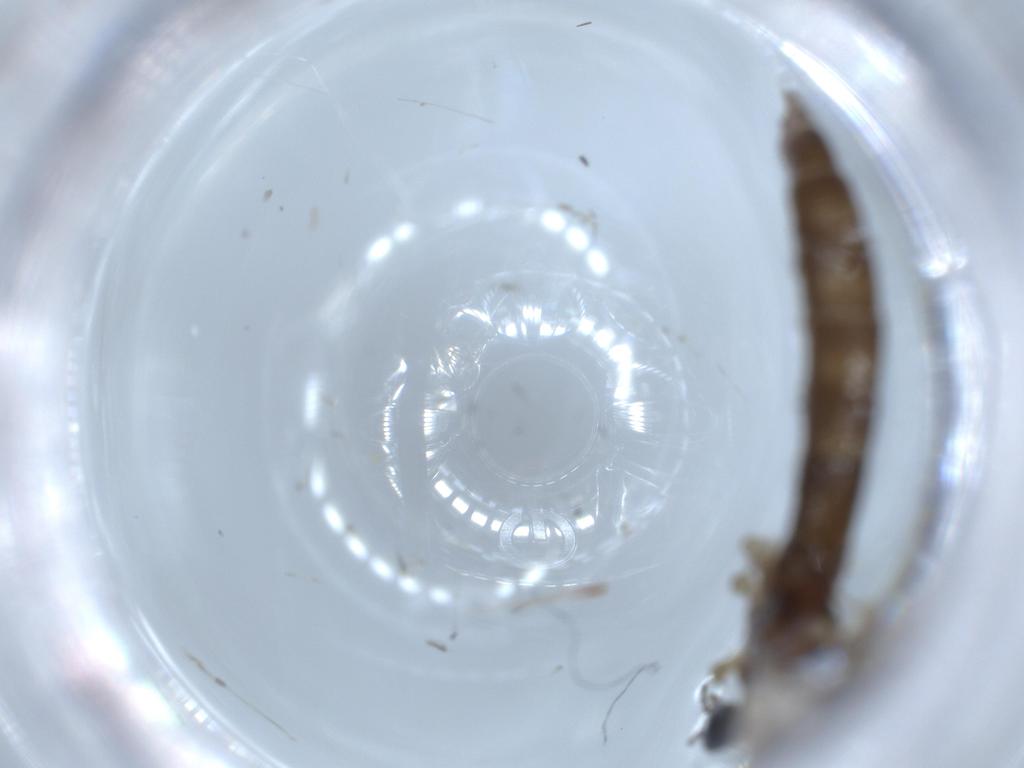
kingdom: Animalia
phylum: Arthropoda
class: Insecta
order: Diptera
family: Limoniidae
